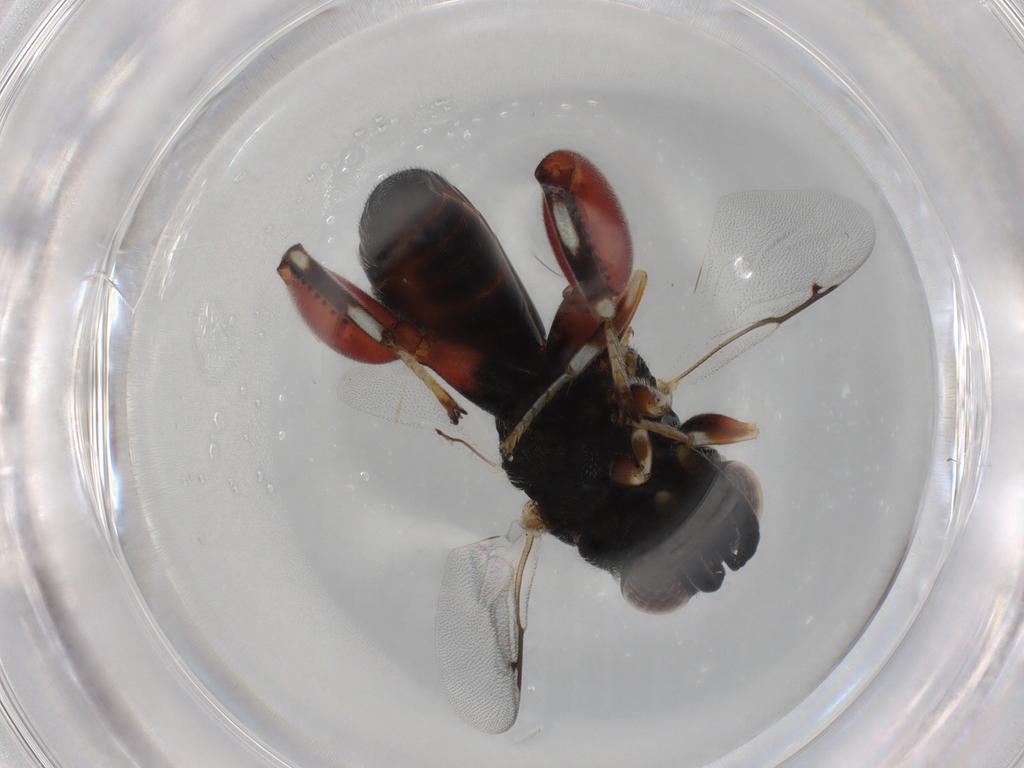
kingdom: Animalia
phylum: Arthropoda
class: Insecta
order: Hymenoptera
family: Chalcididae
